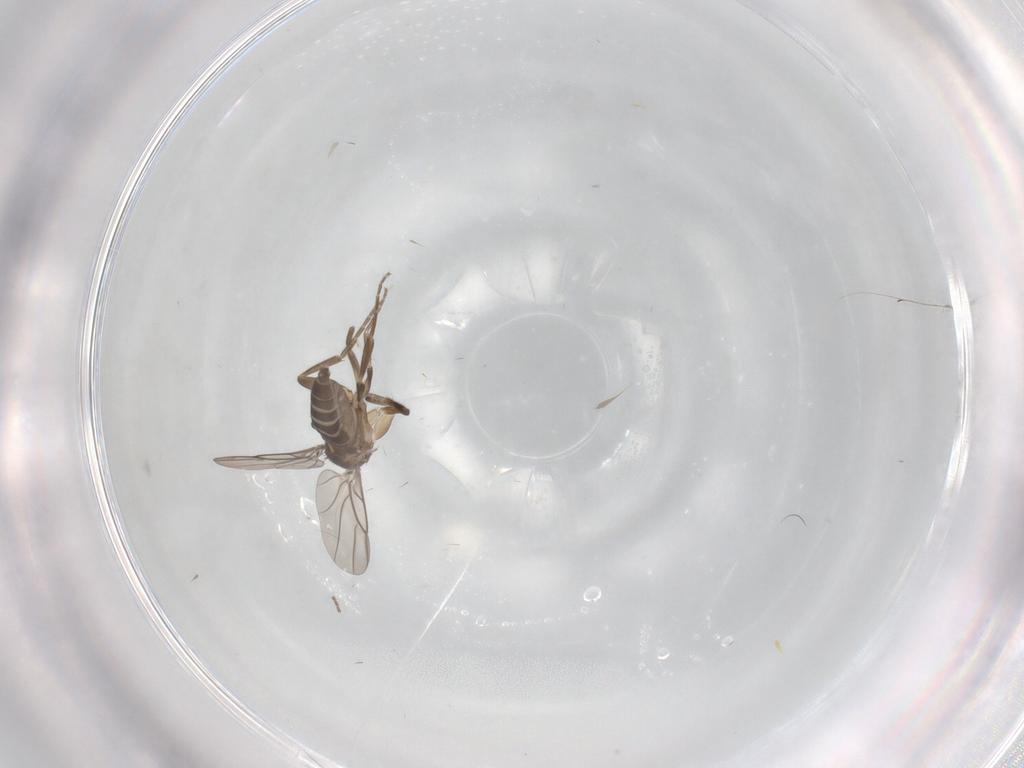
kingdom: Animalia
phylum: Arthropoda
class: Insecta
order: Diptera
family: Phoridae
